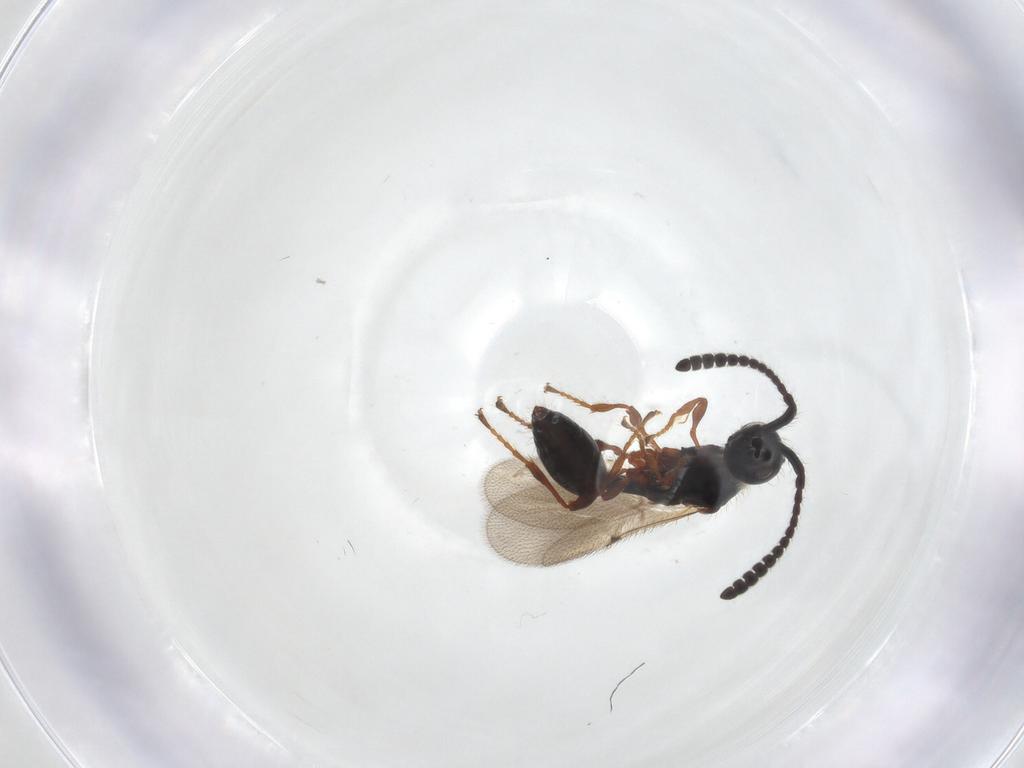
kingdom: Animalia
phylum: Arthropoda
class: Insecta
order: Hymenoptera
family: Diapriidae
